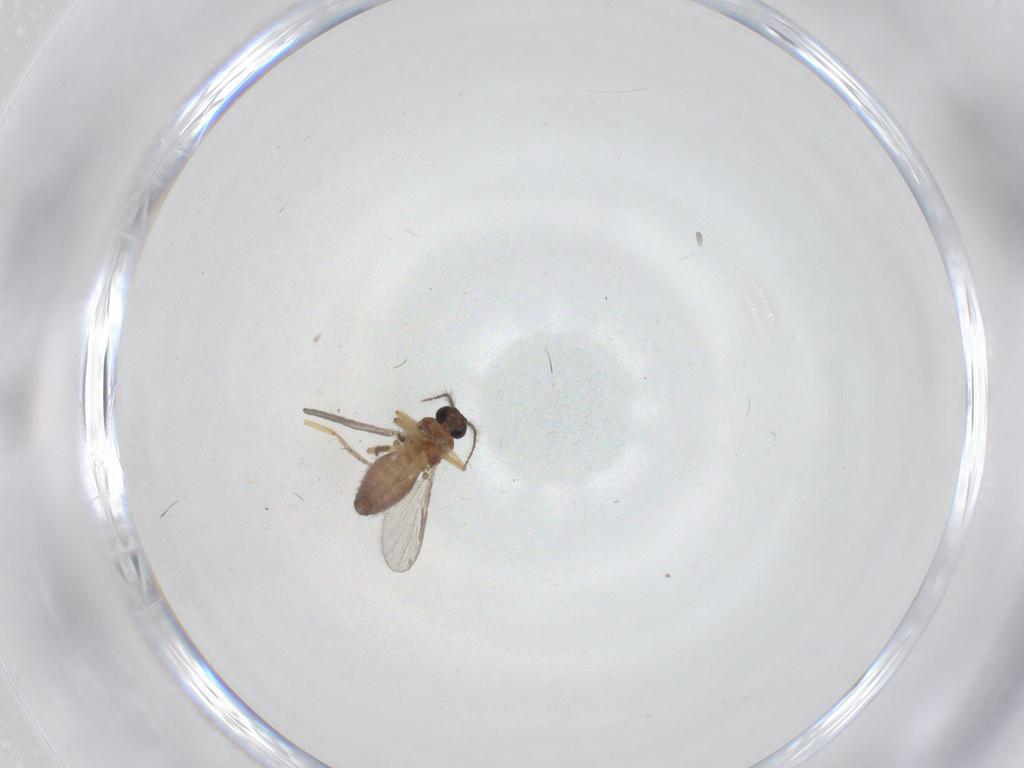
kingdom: Animalia
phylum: Arthropoda
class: Insecta
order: Diptera
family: Ceratopogonidae
